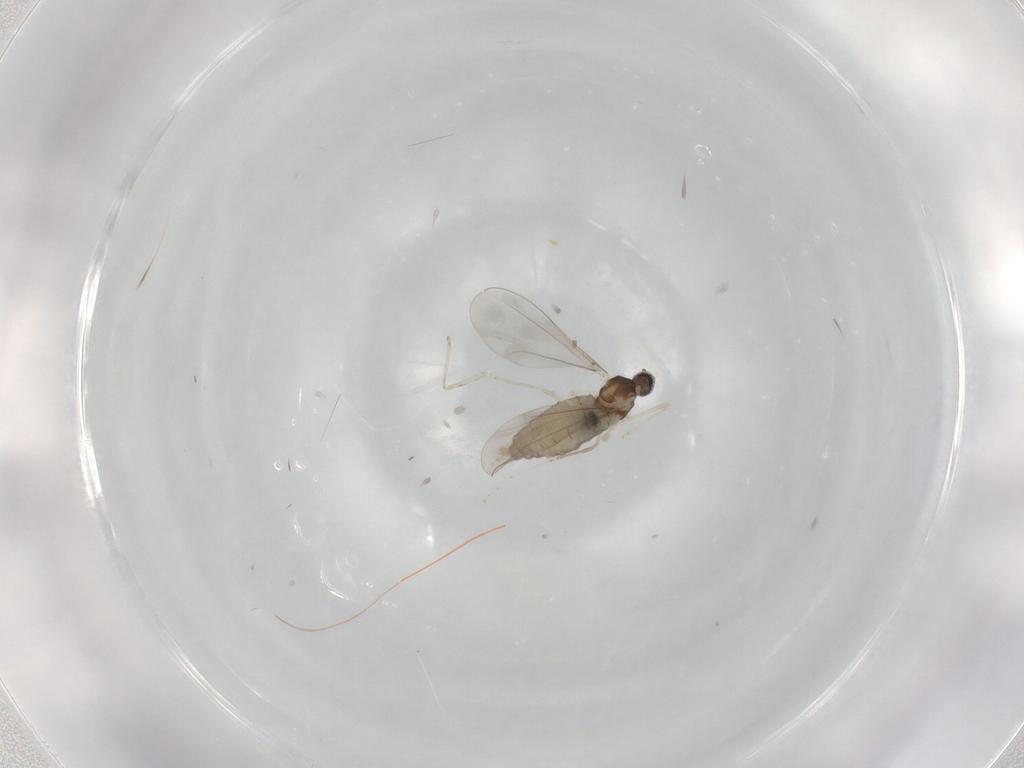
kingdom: Animalia
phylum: Arthropoda
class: Insecta
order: Diptera
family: Cecidomyiidae
